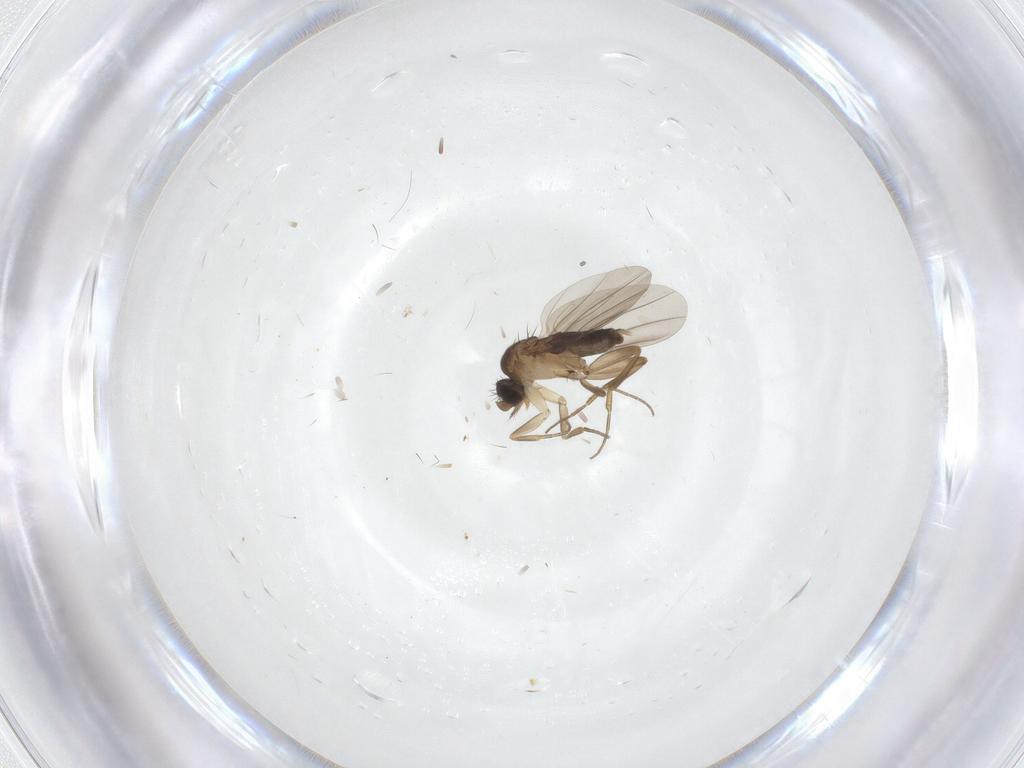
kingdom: Animalia
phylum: Arthropoda
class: Insecta
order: Diptera
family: Phoridae
